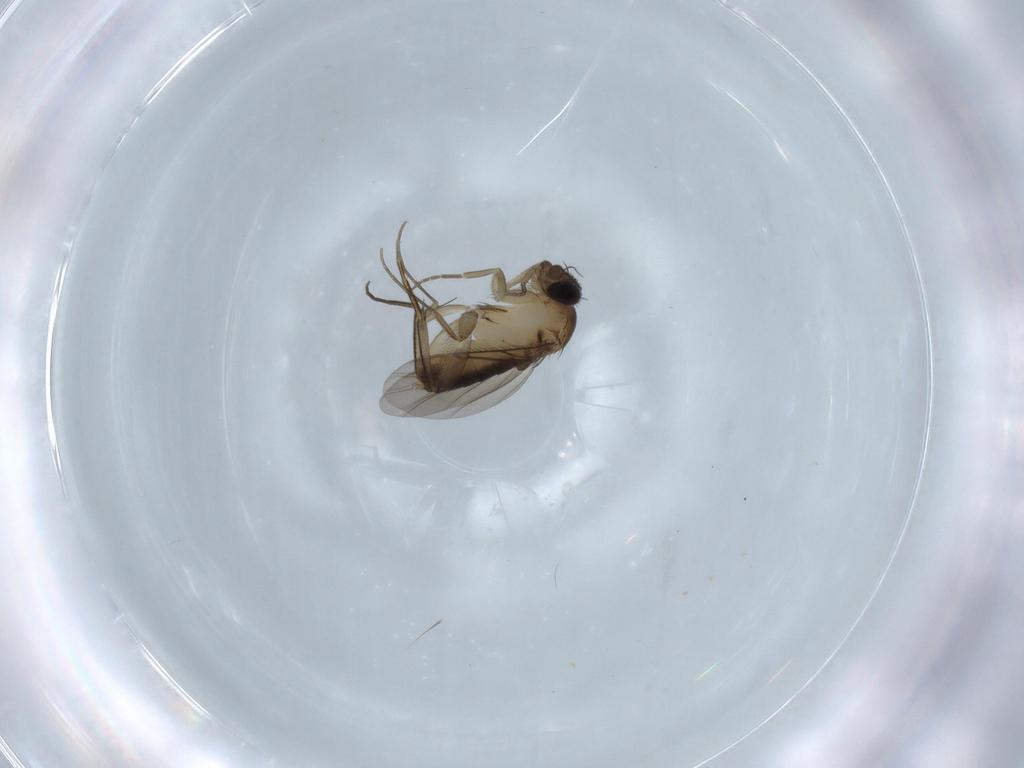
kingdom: Animalia
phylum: Arthropoda
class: Insecta
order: Diptera
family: Phoridae
